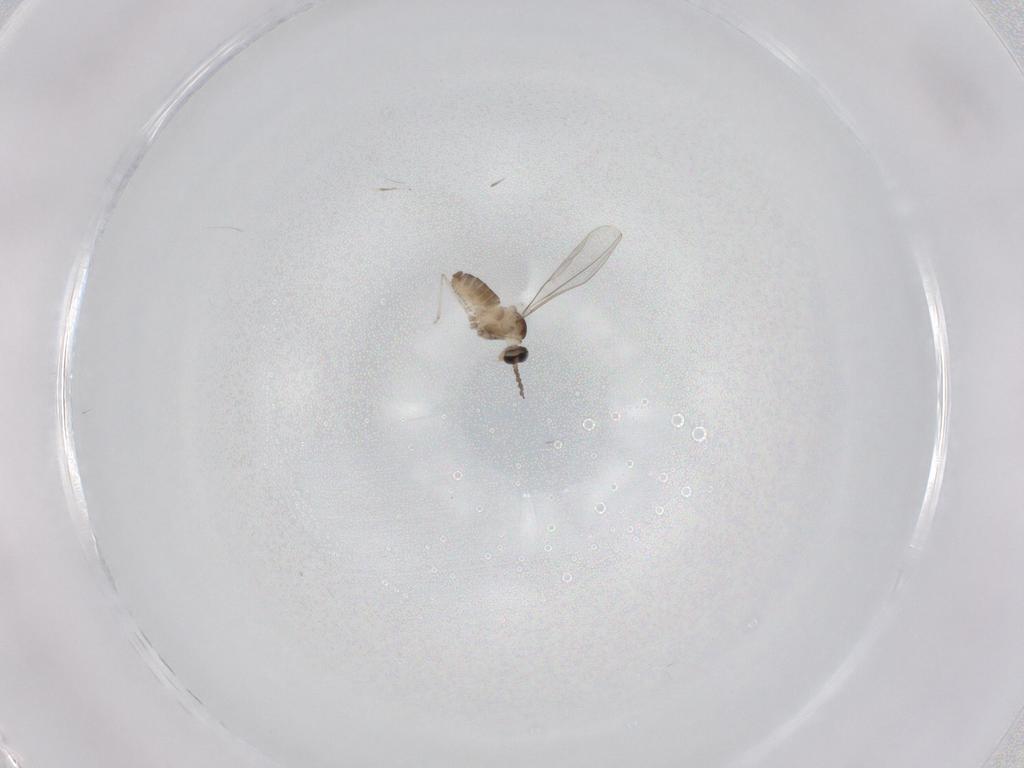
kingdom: Animalia
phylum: Arthropoda
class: Insecta
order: Diptera
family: Cecidomyiidae
